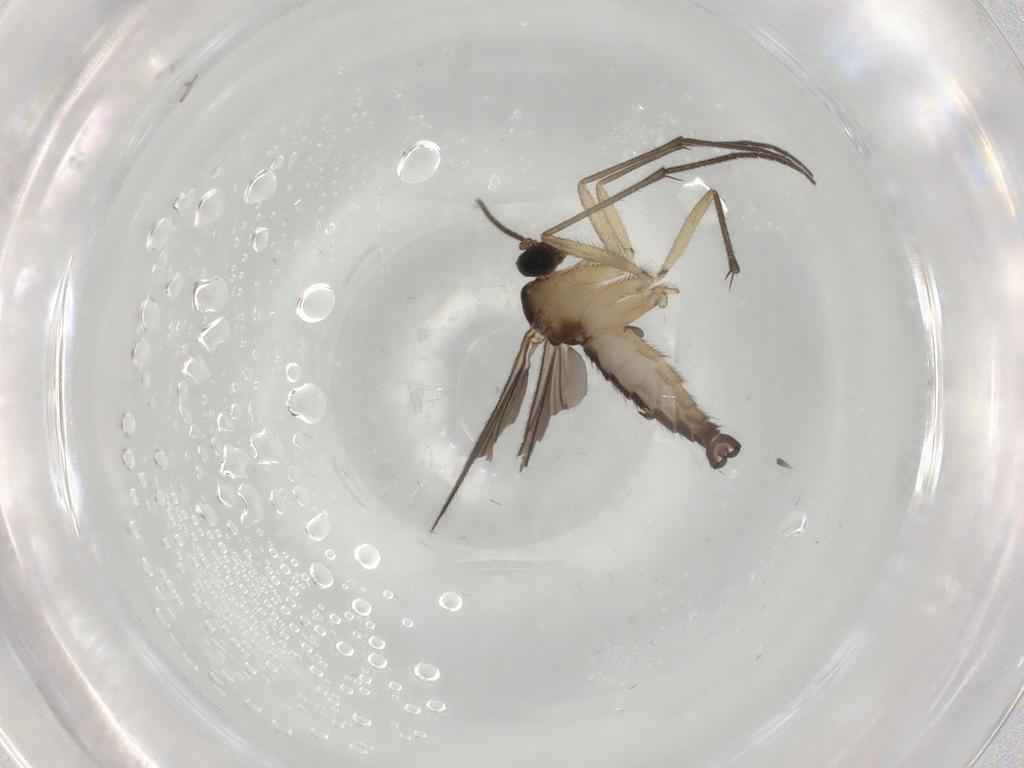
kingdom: Animalia
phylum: Arthropoda
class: Insecta
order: Diptera
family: Sciaridae
